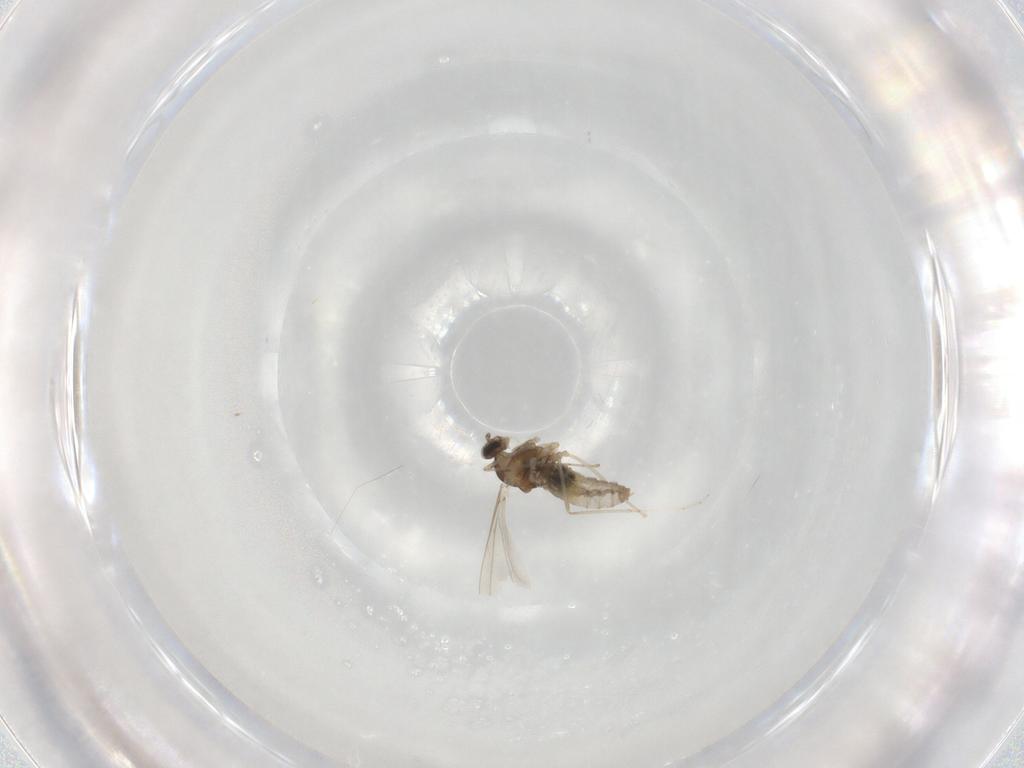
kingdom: Animalia
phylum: Arthropoda
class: Insecta
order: Diptera
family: Cecidomyiidae
